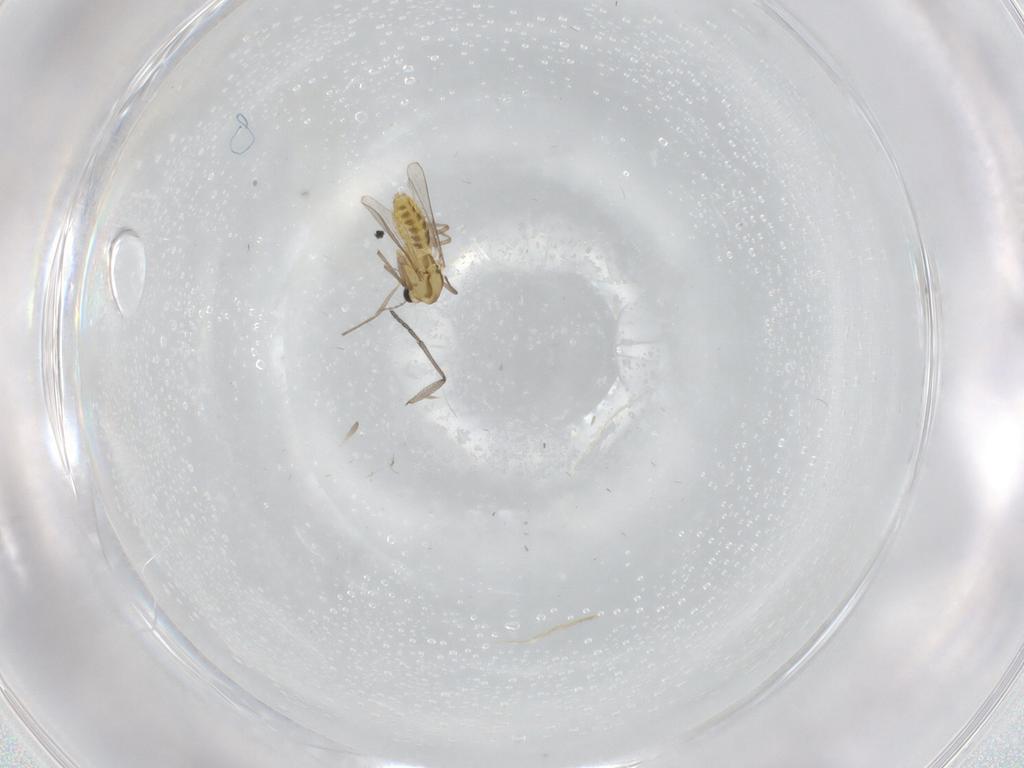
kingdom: Animalia
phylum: Arthropoda
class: Insecta
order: Diptera
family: Sciaridae
